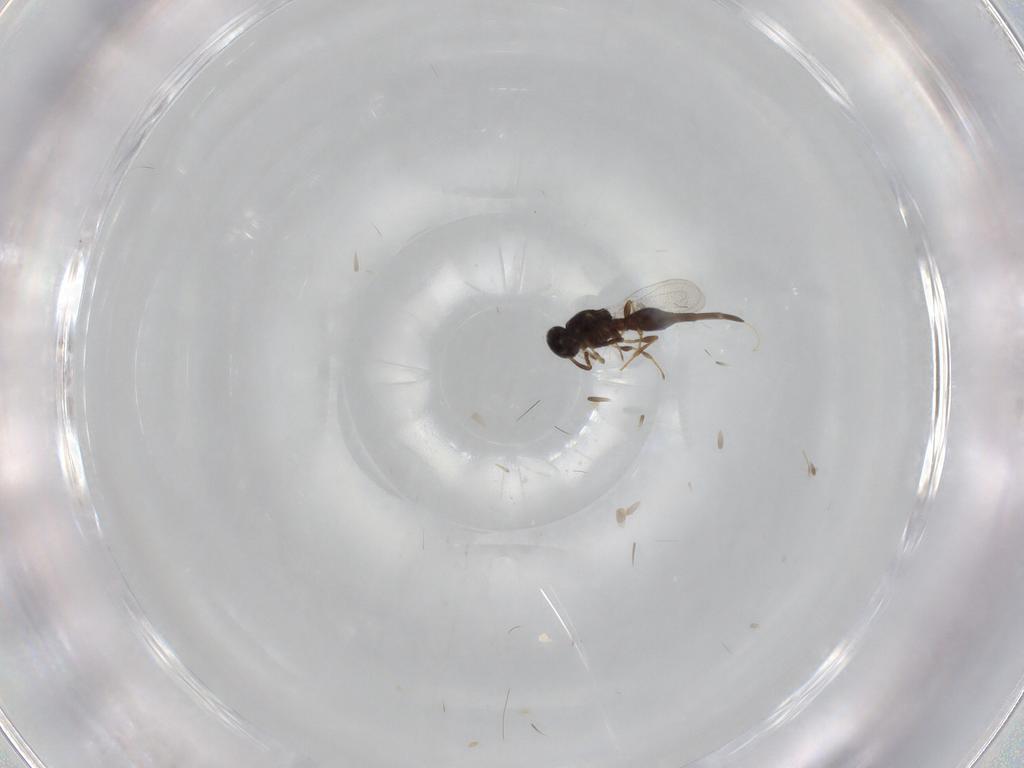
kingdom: Animalia
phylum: Arthropoda
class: Insecta
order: Hymenoptera
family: Platygastridae
